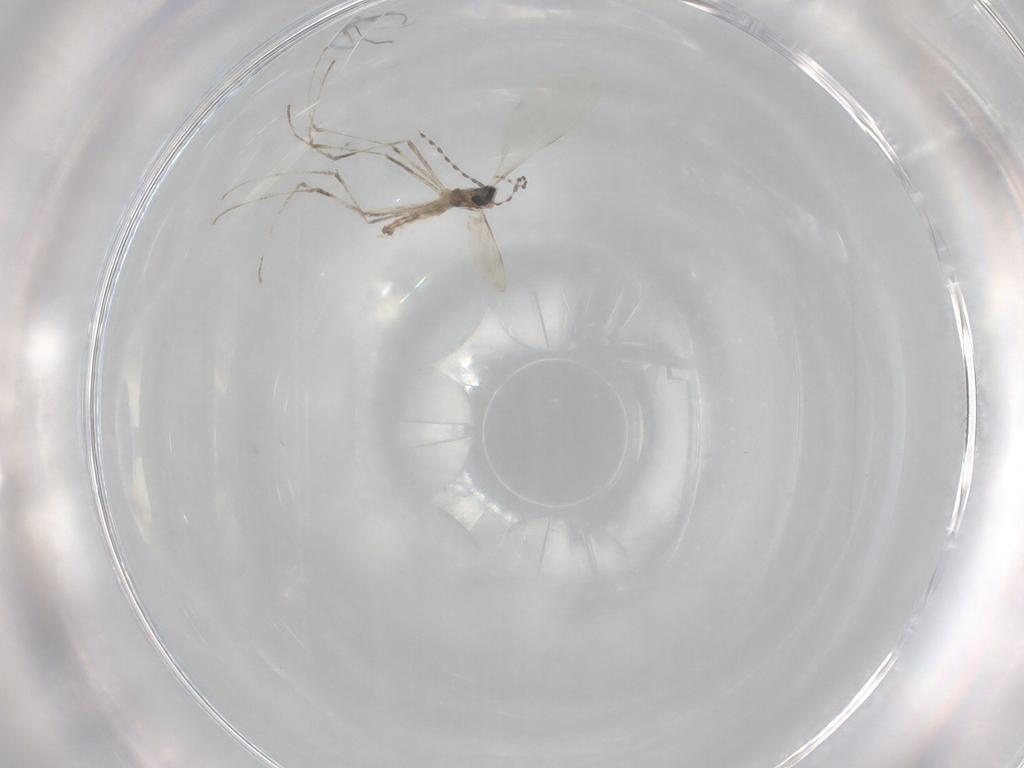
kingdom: Animalia
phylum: Arthropoda
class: Insecta
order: Diptera
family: Cecidomyiidae
